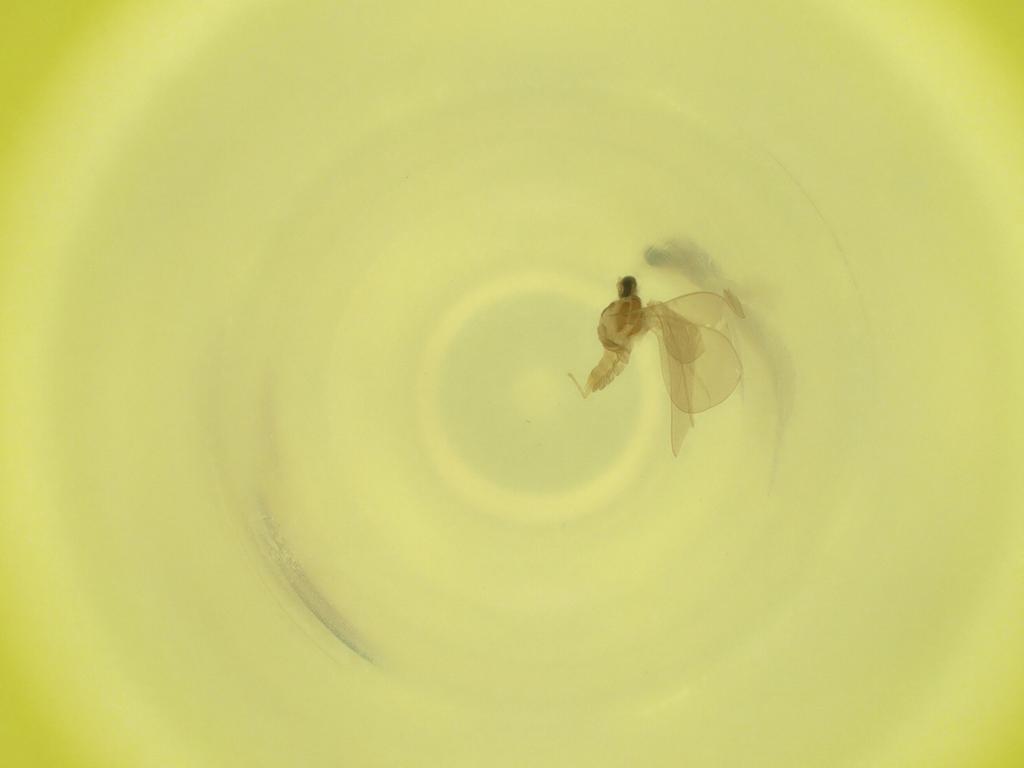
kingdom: Animalia
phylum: Arthropoda
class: Insecta
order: Diptera
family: Cecidomyiidae
